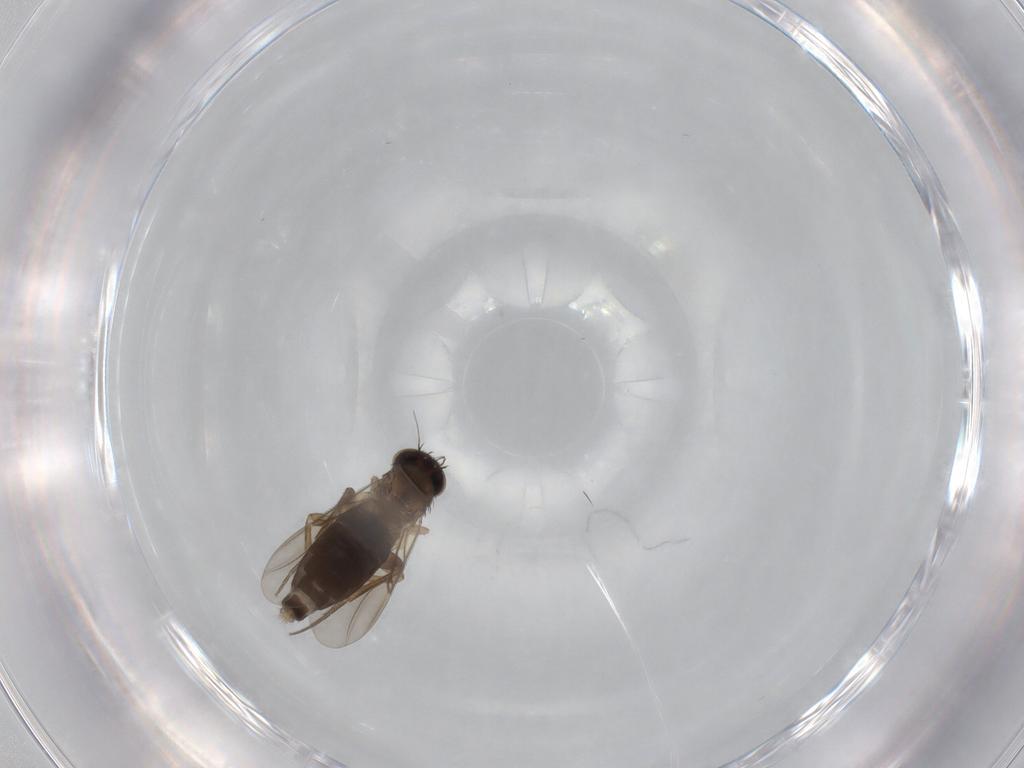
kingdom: Animalia
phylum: Arthropoda
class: Insecta
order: Diptera
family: Phoridae
